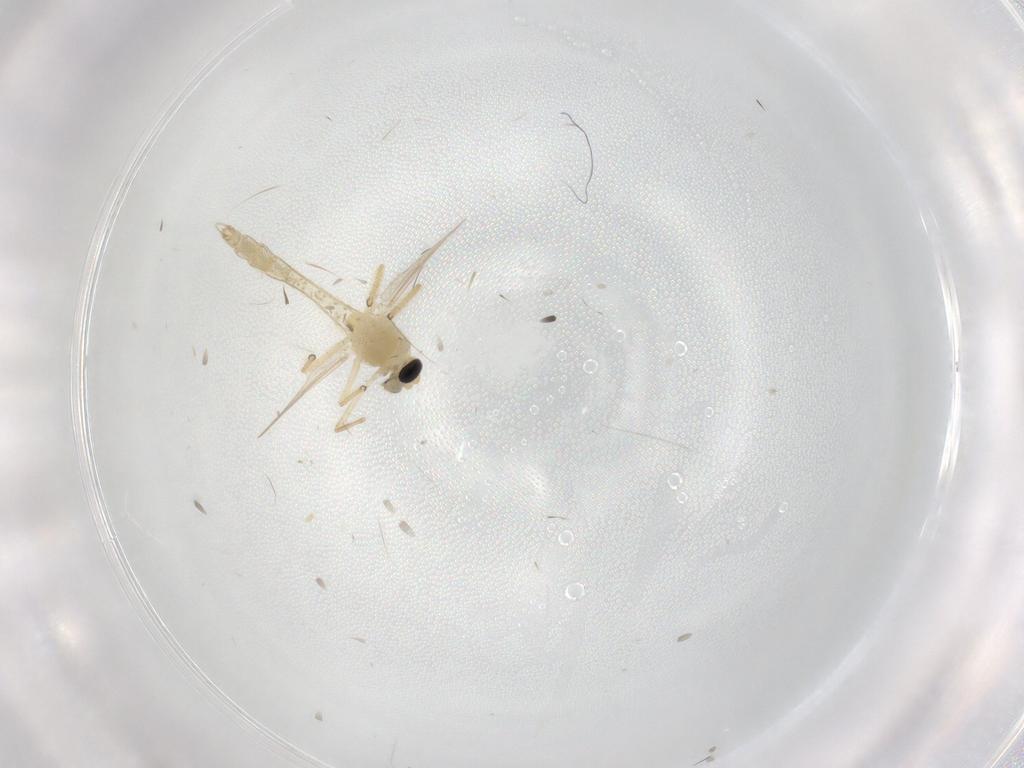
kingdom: Animalia
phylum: Arthropoda
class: Insecta
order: Diptera
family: Chironomidae
